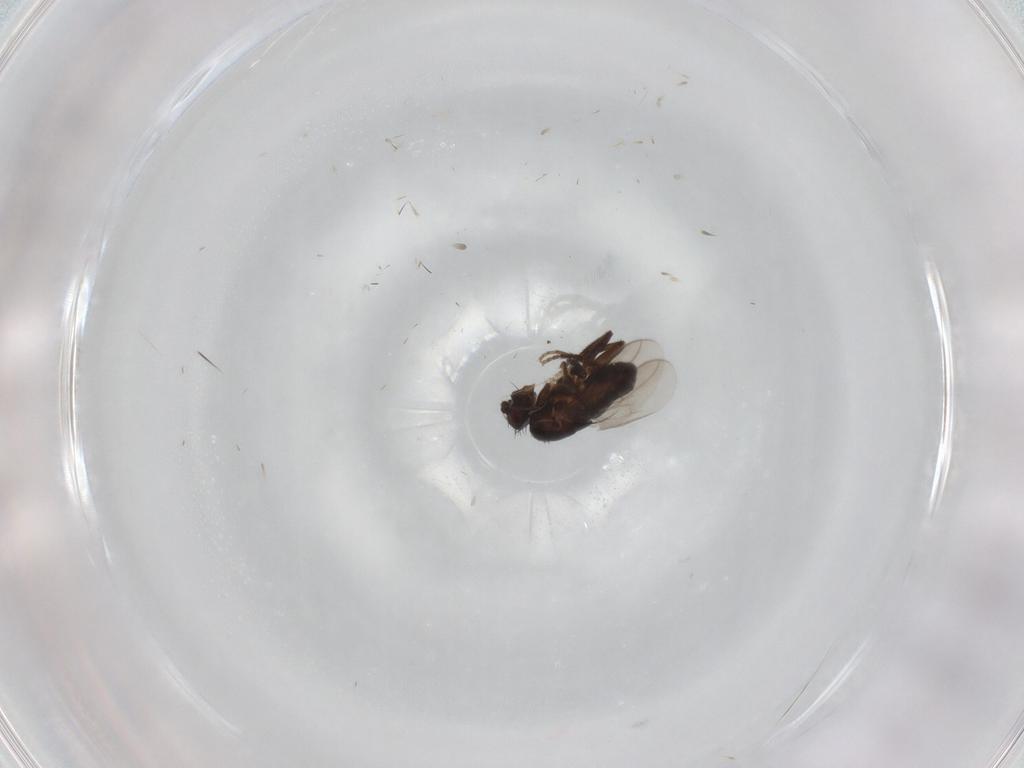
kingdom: Animalia
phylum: Arthropoda
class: Insecta
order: Diptera
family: Sphaeroceridae
